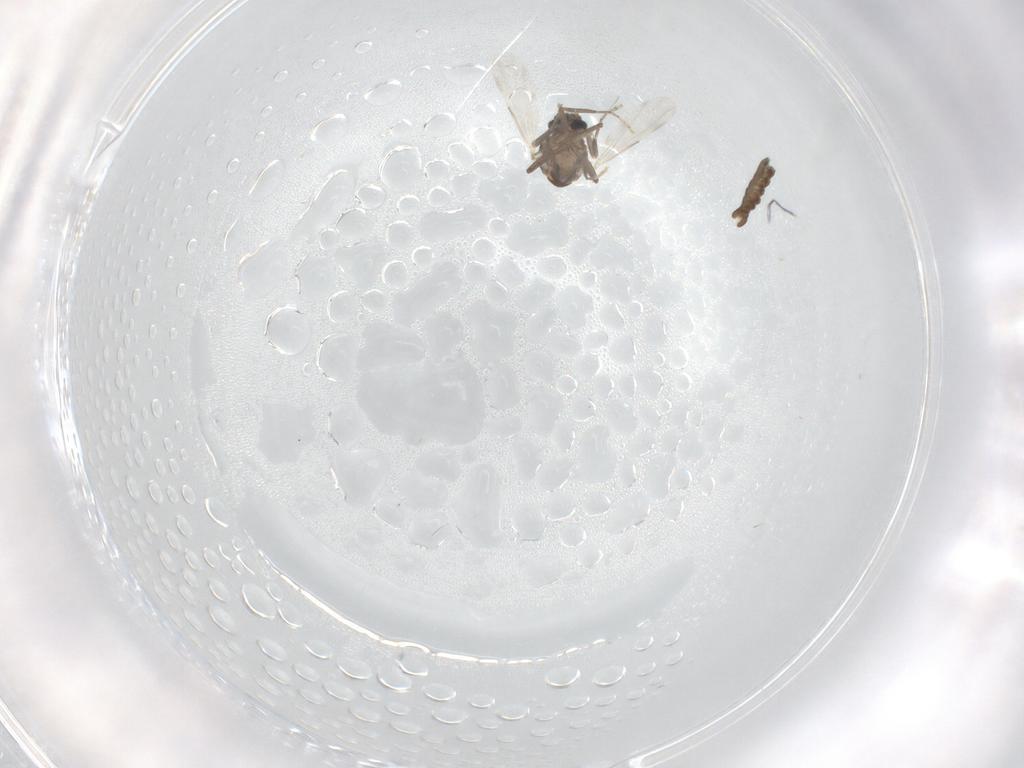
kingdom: Animalia
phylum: Arthropoda
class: Insecta
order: Diptera
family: Ceratopogonidae
